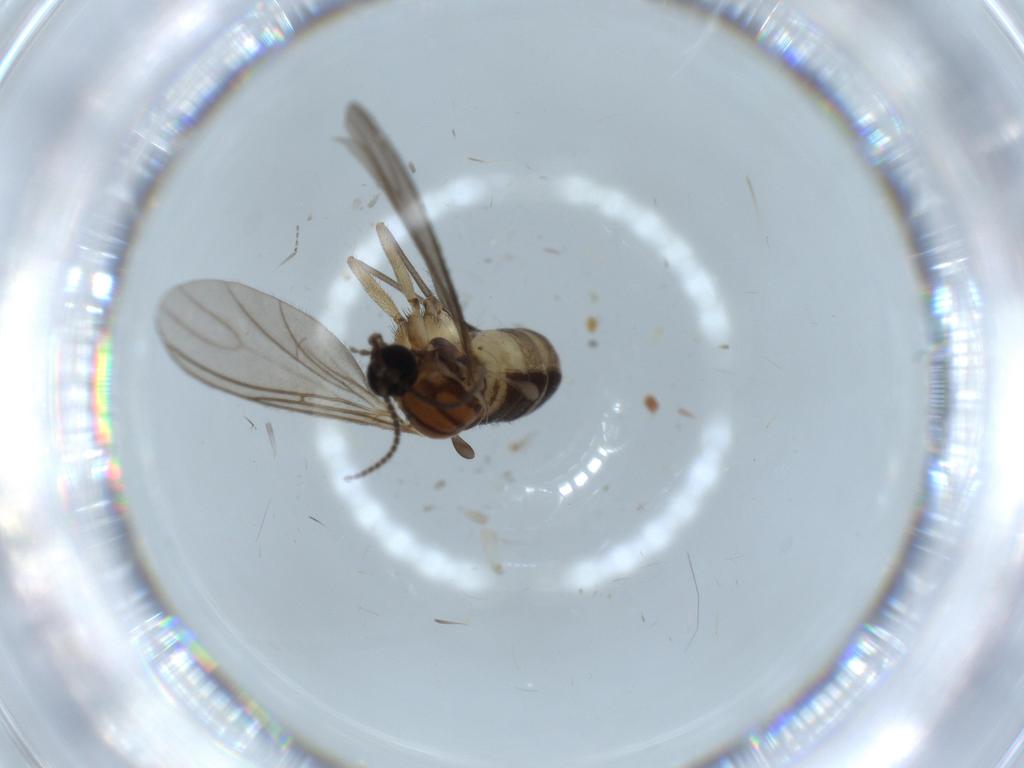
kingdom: Animalia
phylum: Arthropoda
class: Insecta
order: Diptera
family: Sciaridae
